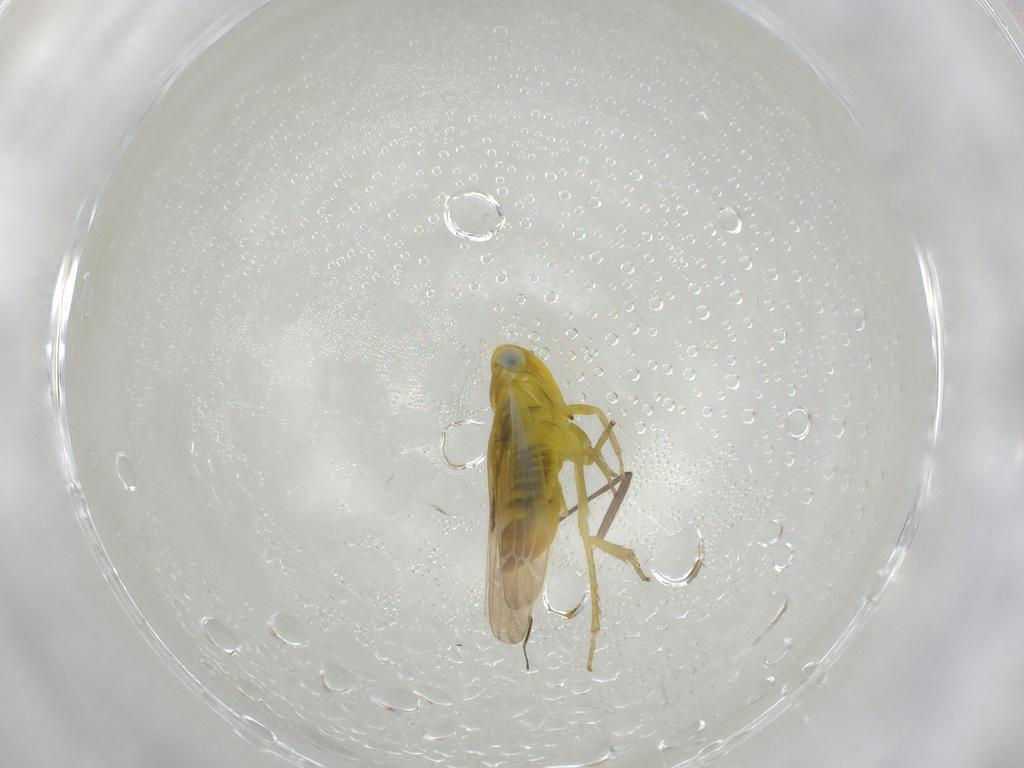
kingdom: Animalia
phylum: Arthropoda
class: Insecta
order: Hemiptera
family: Cicadellidae
